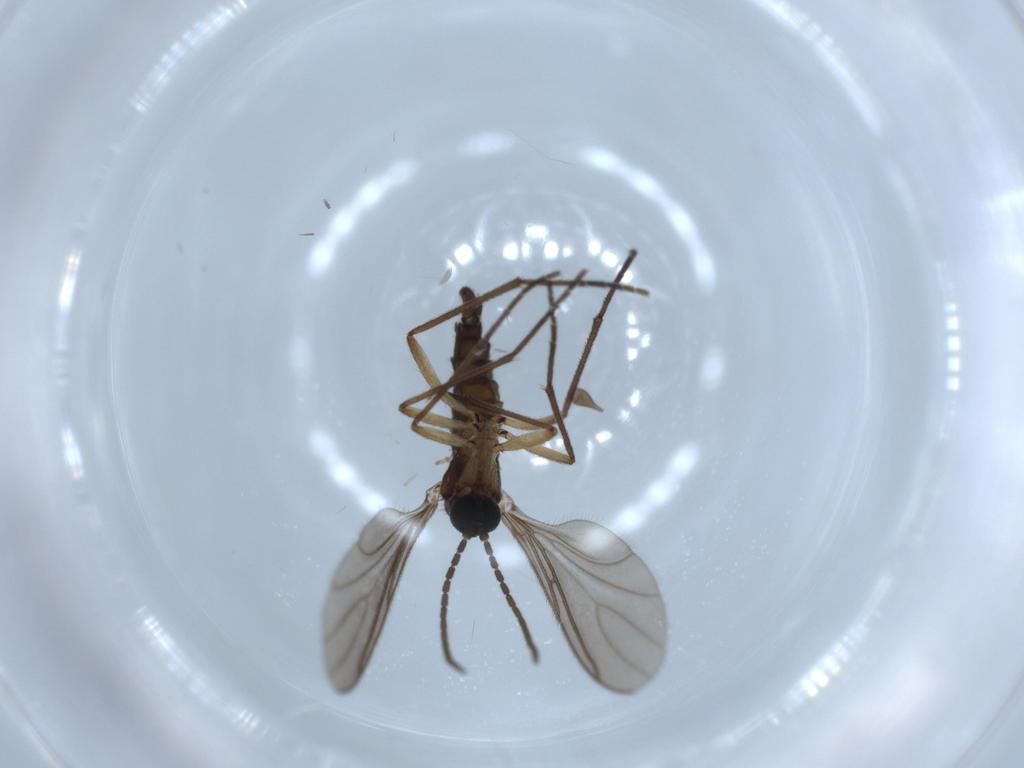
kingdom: Animalia
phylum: Arthropoda
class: Insecta
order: Diptera
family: Sciaridae
